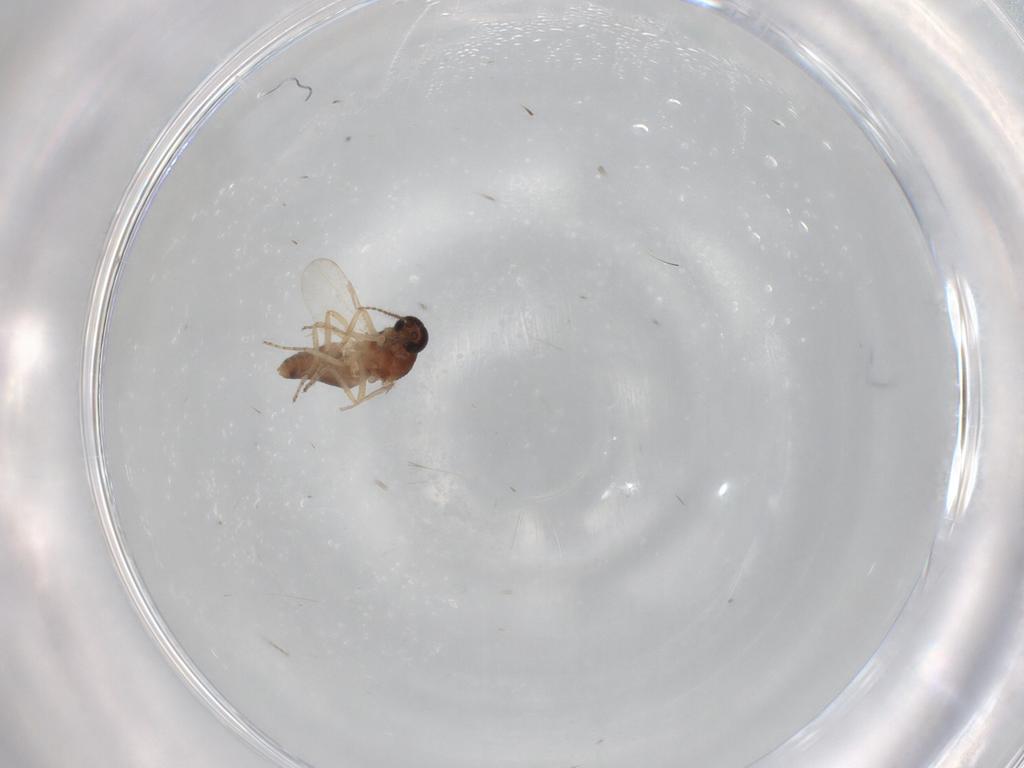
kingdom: Animalia
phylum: Arthropoda
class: Insecta
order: Diptera
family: Ceratopogonidae
